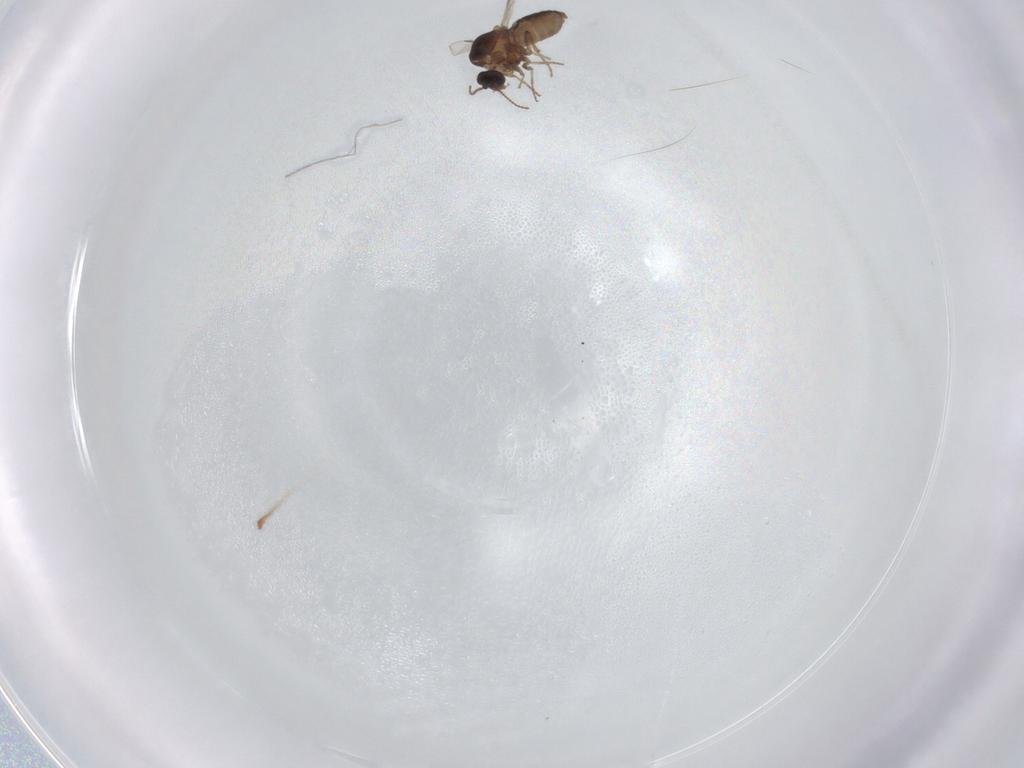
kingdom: Animalia
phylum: Arthropoda
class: Insecta
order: Diptera
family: Ceratopogonidae
